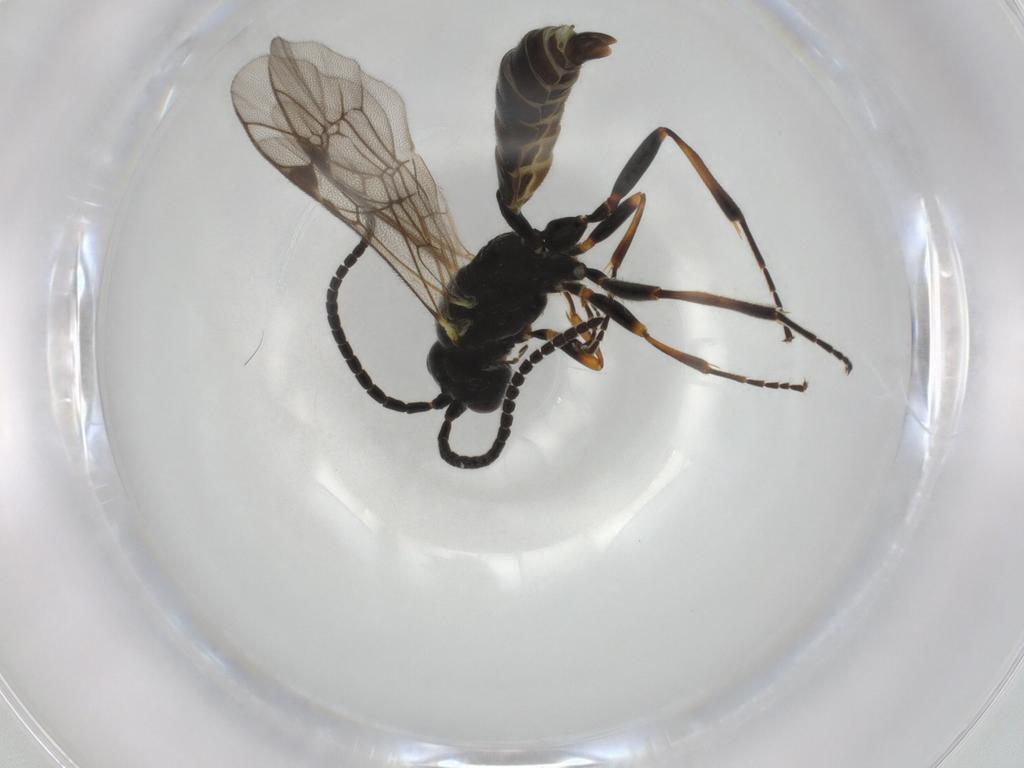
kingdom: Animalia
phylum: Arthropoda
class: Insecta
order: Hymenoptera
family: Ichneumonidae
